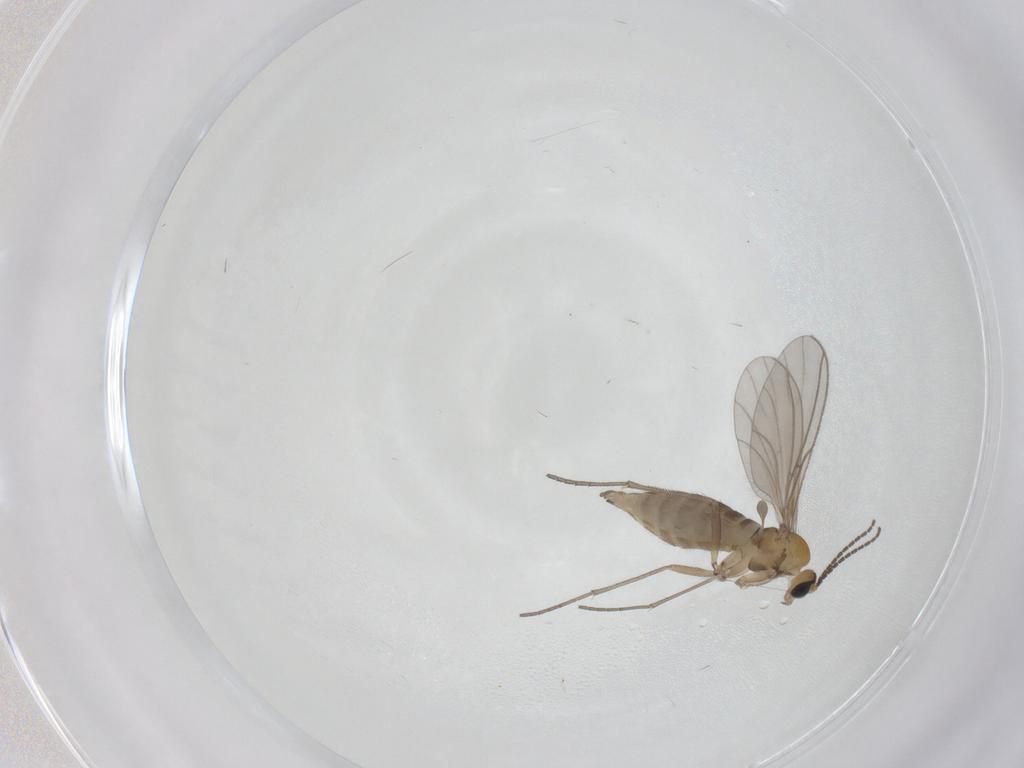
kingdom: Animalia
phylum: Arthropoda
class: Insecta
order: Diptera
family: Sciaridae
